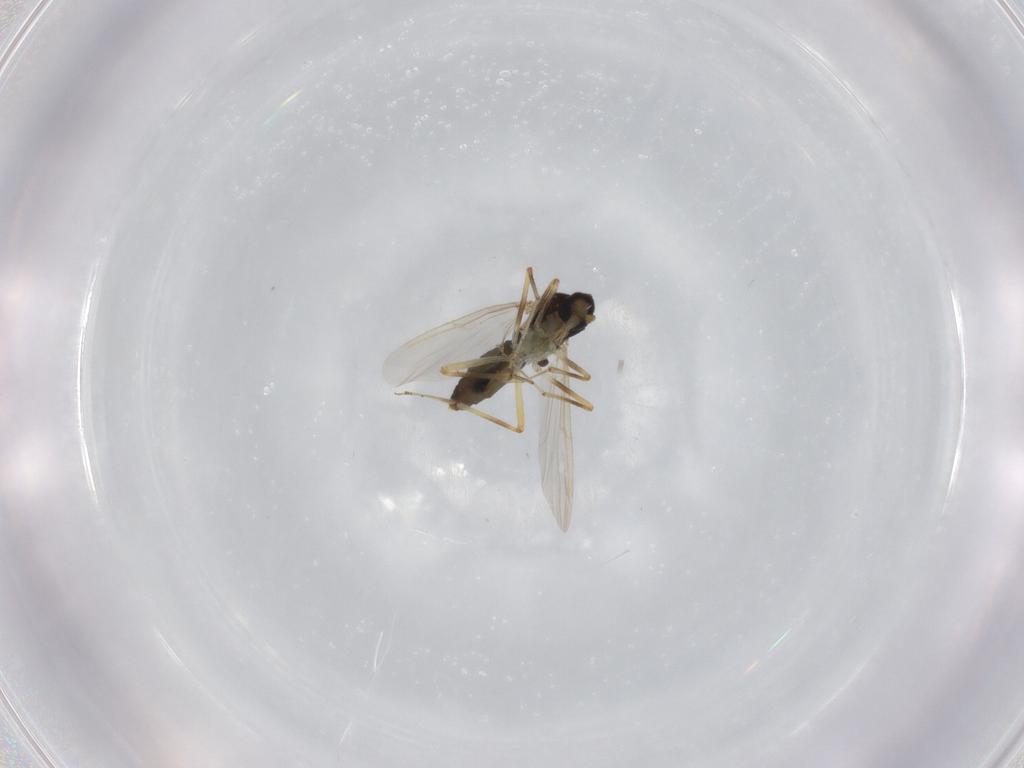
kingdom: Animalia
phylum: Arthropoda
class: Insecta
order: Diptera
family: Ceratopogonidae
